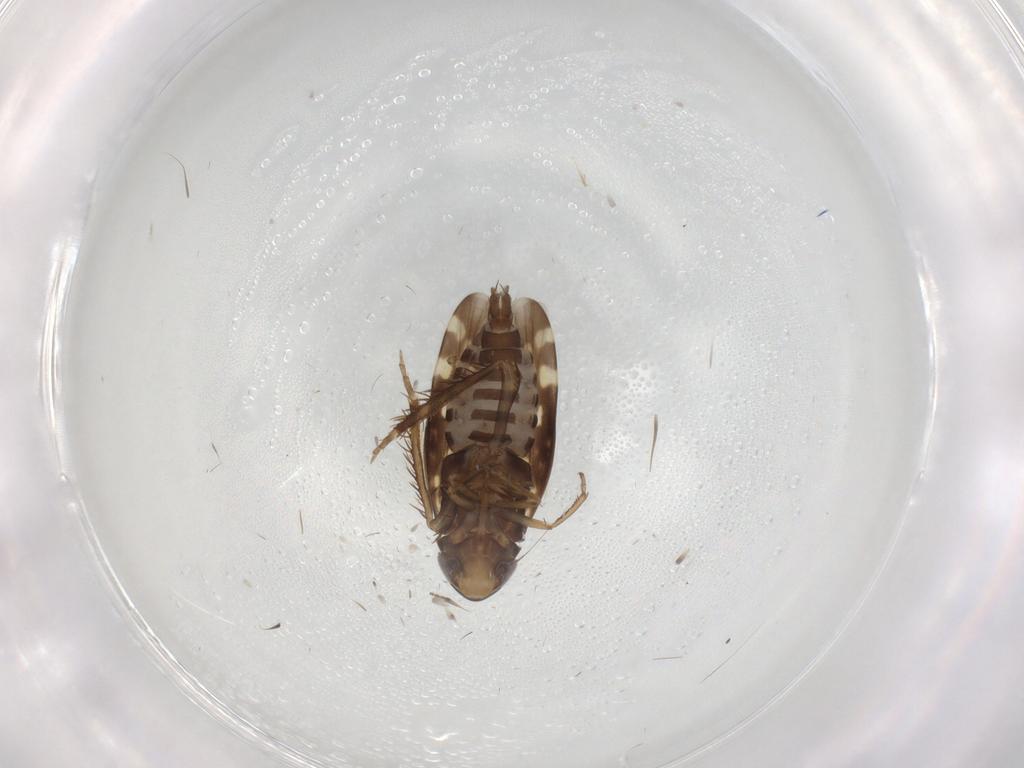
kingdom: Animalia
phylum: Arthropoda
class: Insecta
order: Hemiptera
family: Cicadellidae
